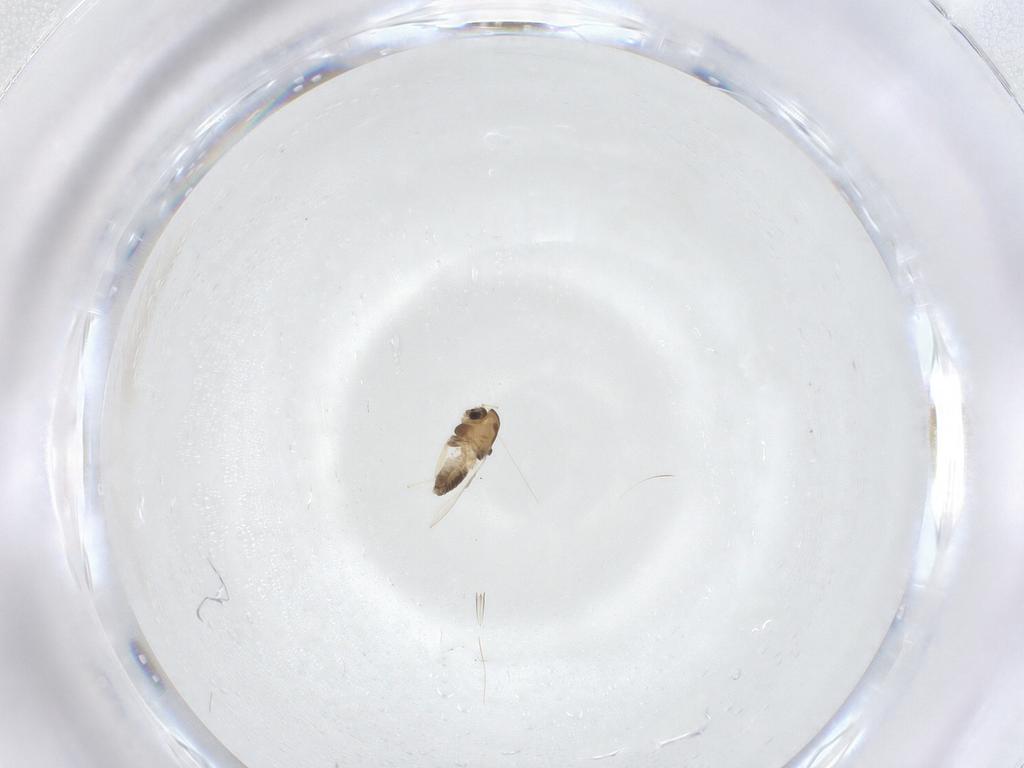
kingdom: Animalia
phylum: Arthropoda
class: Insecta
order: Diptera
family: Chironomidae
